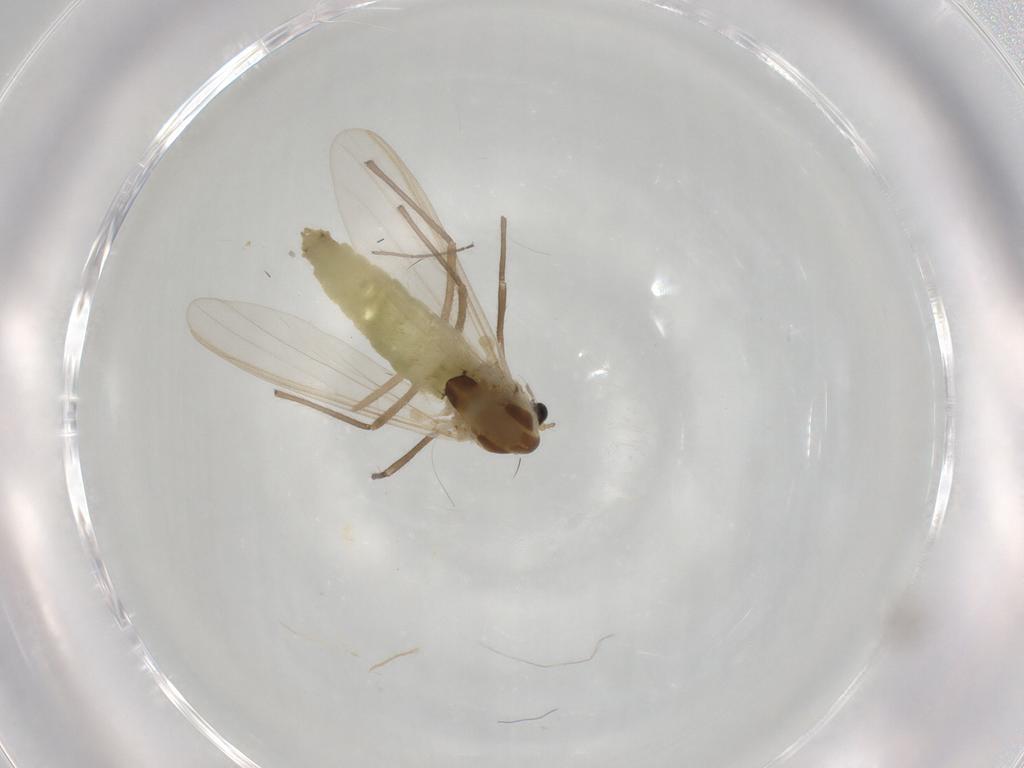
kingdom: Animalia
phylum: Arthropoda
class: Insecta
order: Diptera
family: Chironomidae
